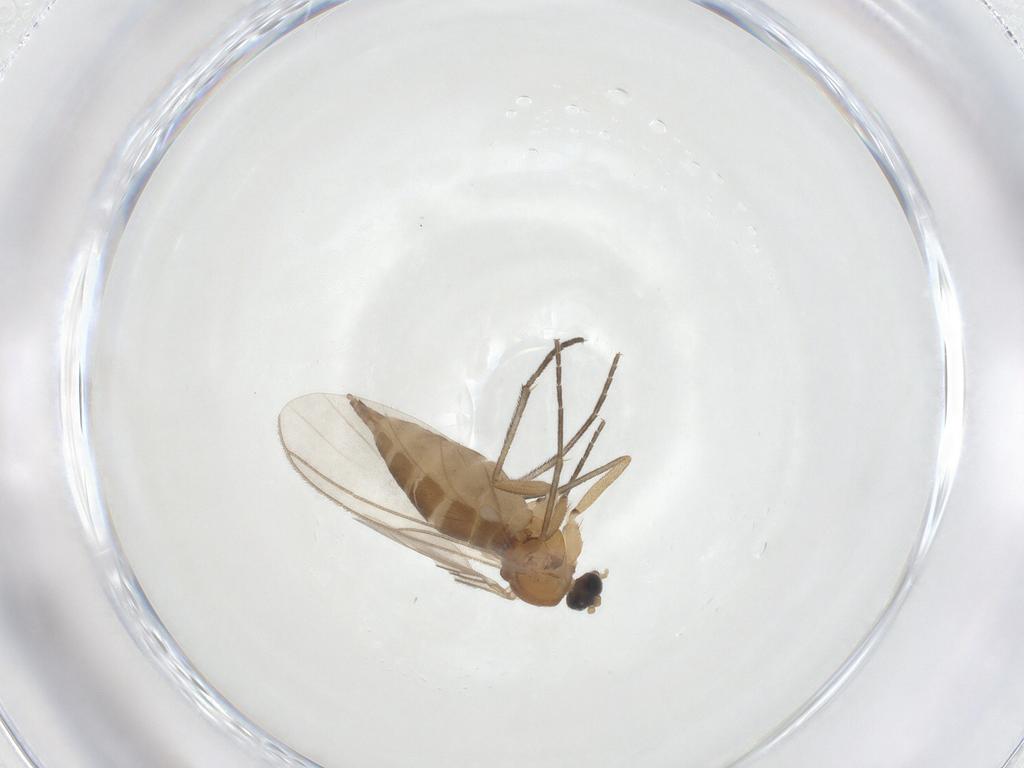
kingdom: Animalia
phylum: Arthropoda
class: Insecta
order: Diptera
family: Sciaridae
